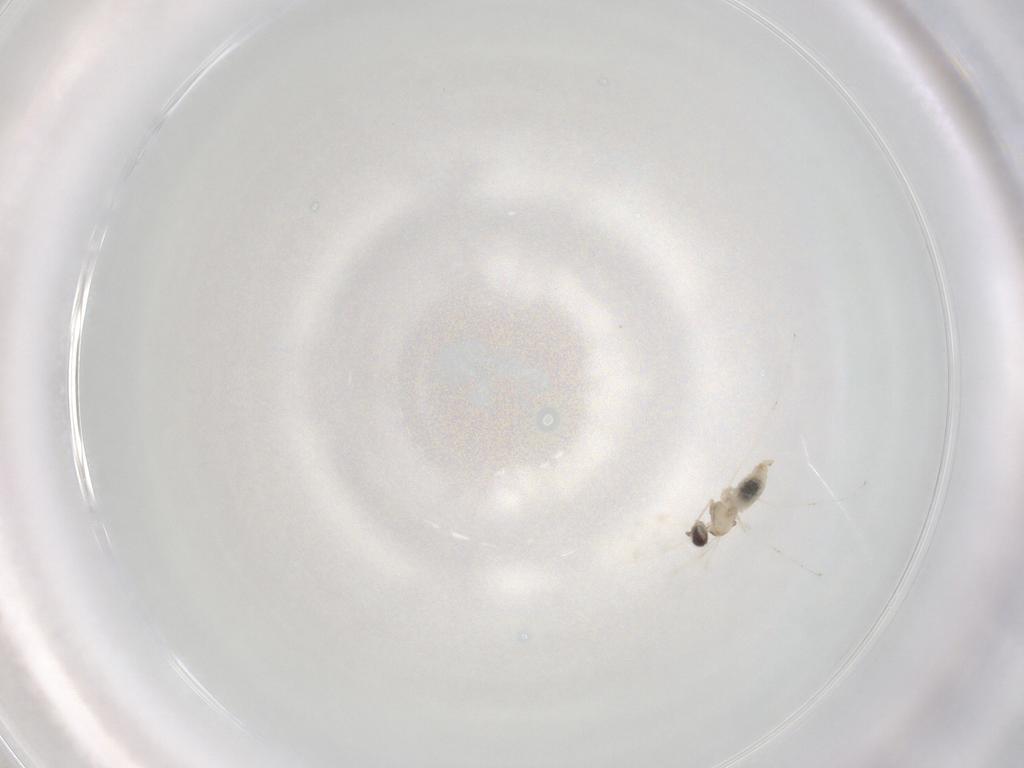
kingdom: Animalia
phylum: Arthropoda
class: Insecta
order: Diptera
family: Cecidomyiidae
